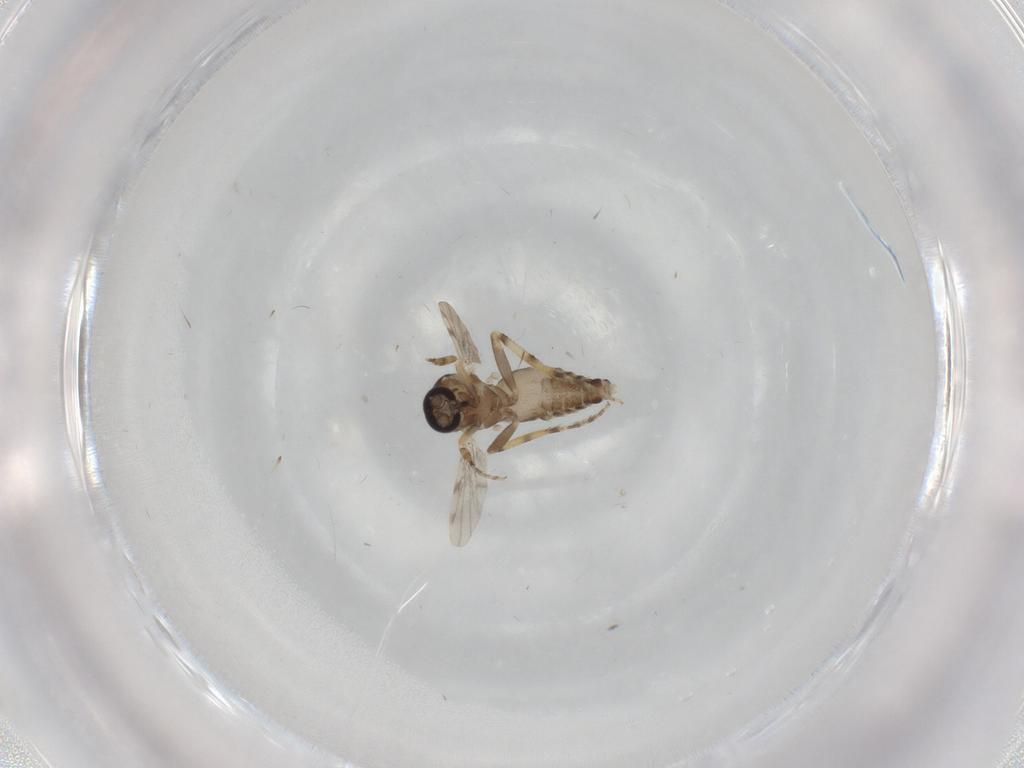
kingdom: Animalia
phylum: Arthropoda
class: Insecta
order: Diptera
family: Ceratopogonidae
